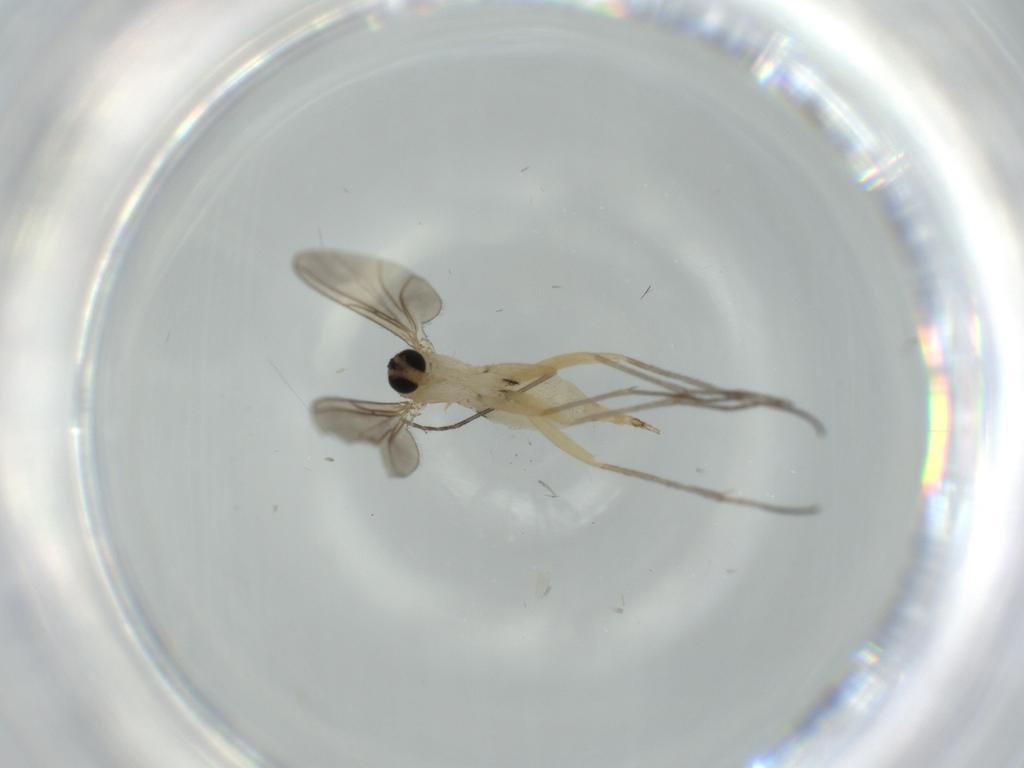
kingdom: Animalia
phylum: Arthropoda
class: Insecta
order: Diptera
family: Sciaridae
